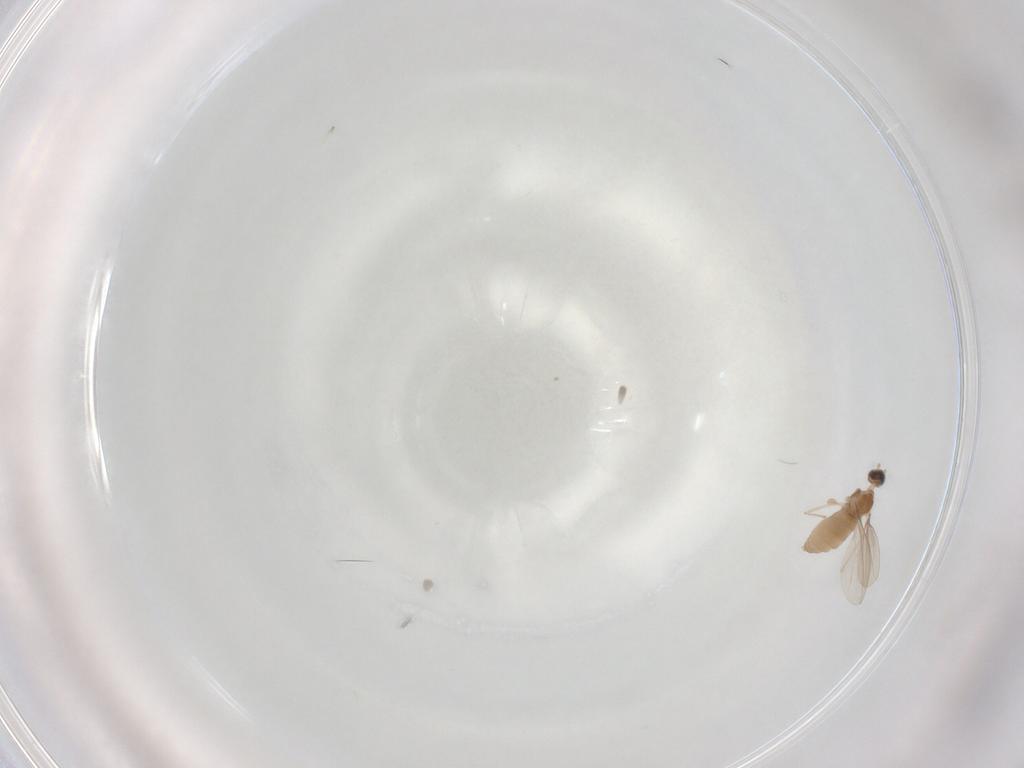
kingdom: Animalia
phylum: Arthropoda
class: Insecta
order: Diptera
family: Cecidomyiidae
